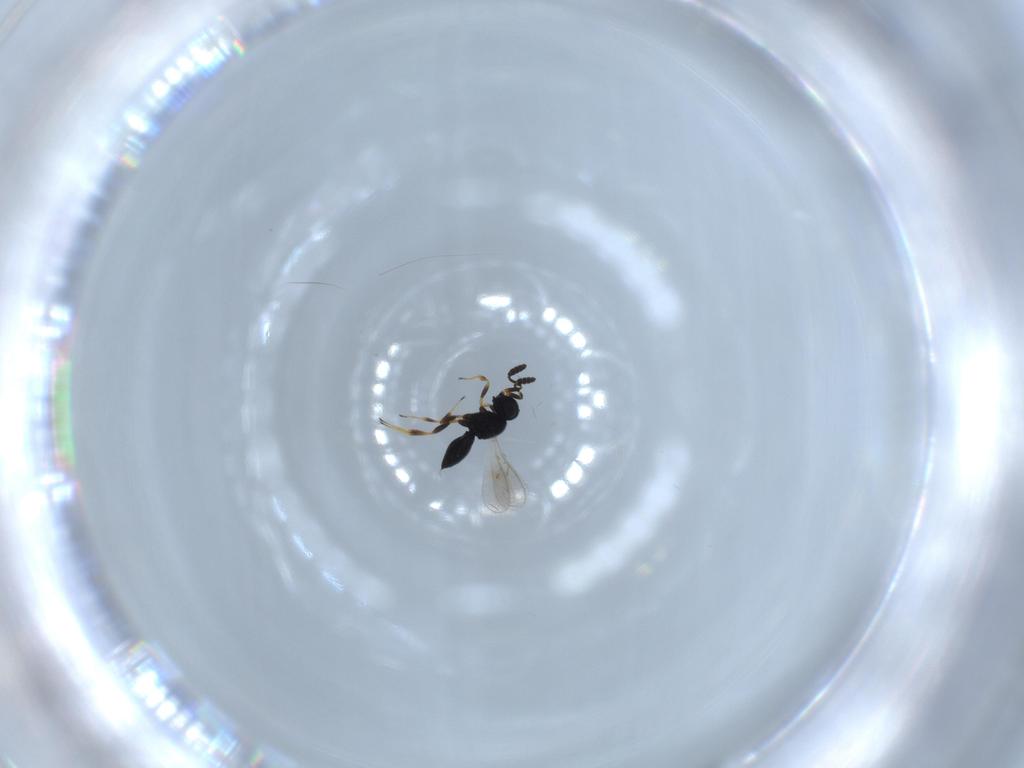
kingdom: Animalia
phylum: Arthropoda
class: Insecta
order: Hymenoptera
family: Scelionidae
